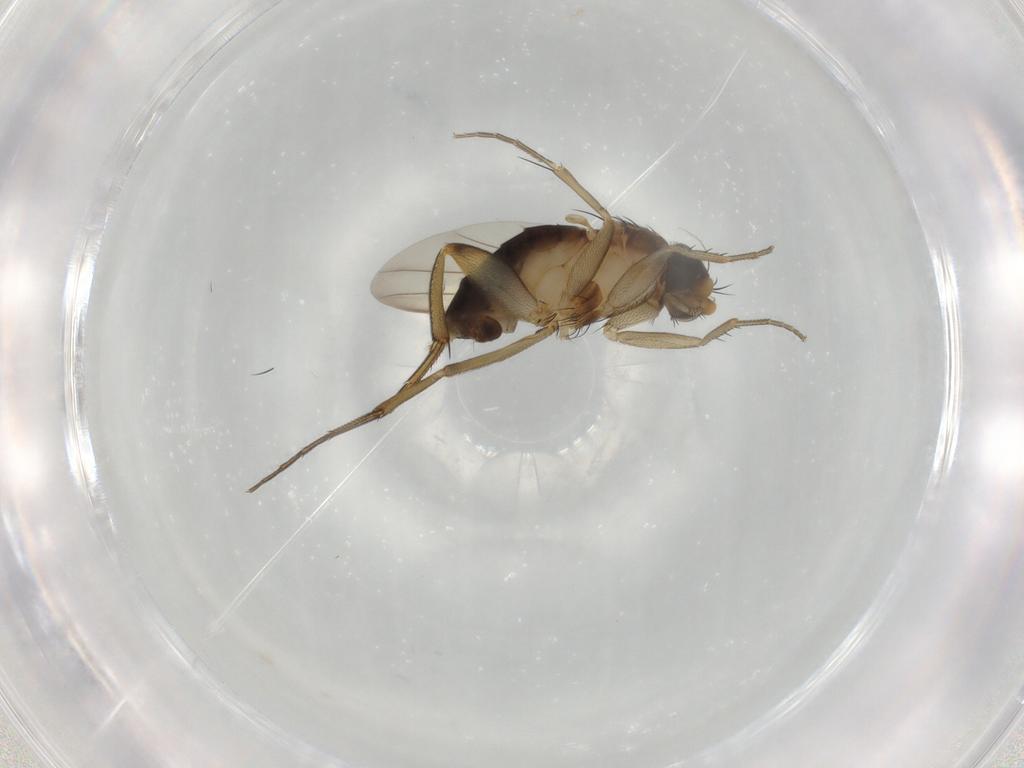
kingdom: Animalia
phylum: Arthropoda
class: Insecta
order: Diptera
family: Phoridae
